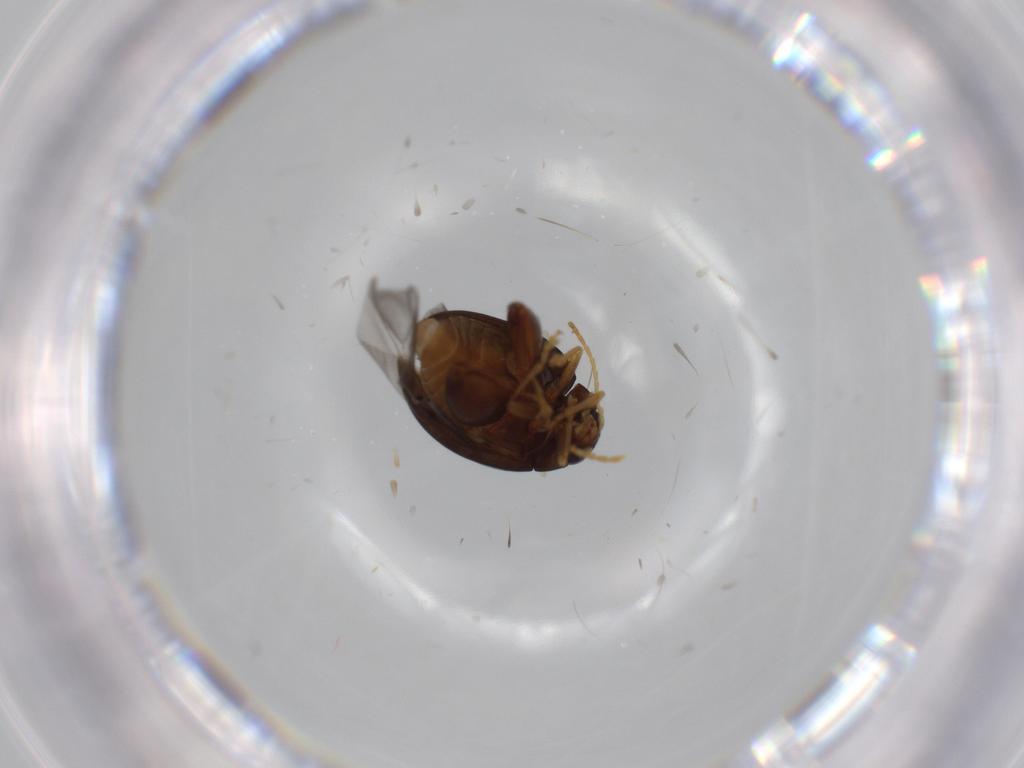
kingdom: Animalia
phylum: Arthropoda
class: Insecta
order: Coleoptera
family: Chrysomelidae
